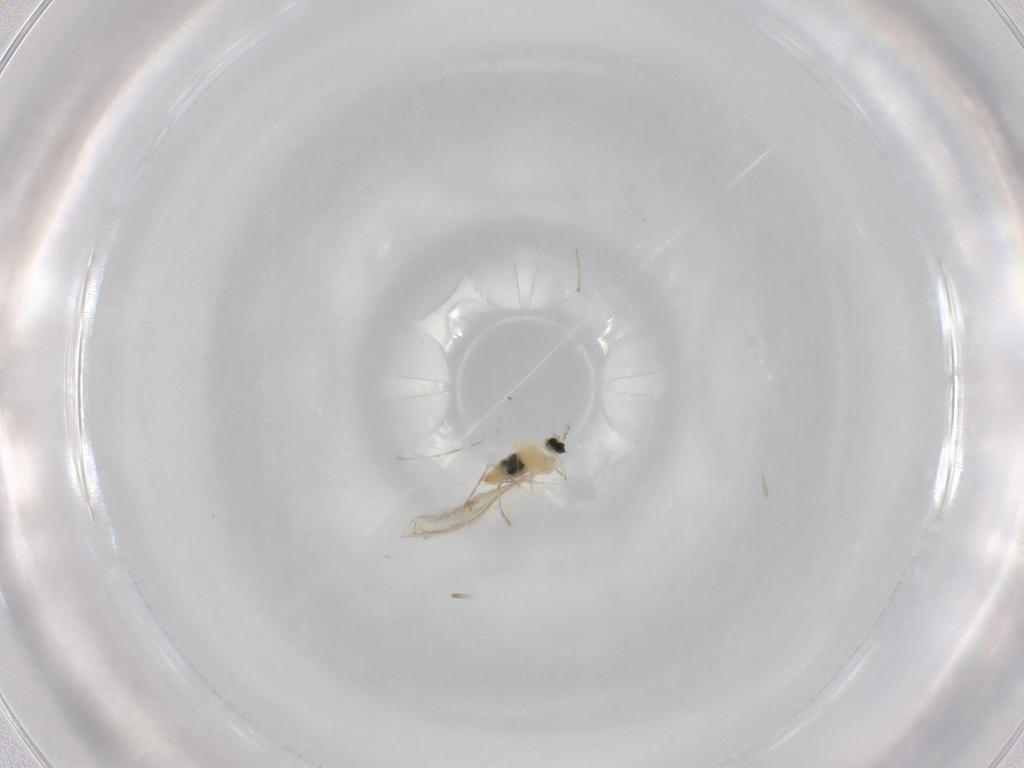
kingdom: Animalia
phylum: Arthropoda
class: Insecta
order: Diptera
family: Cecidomyiidae
